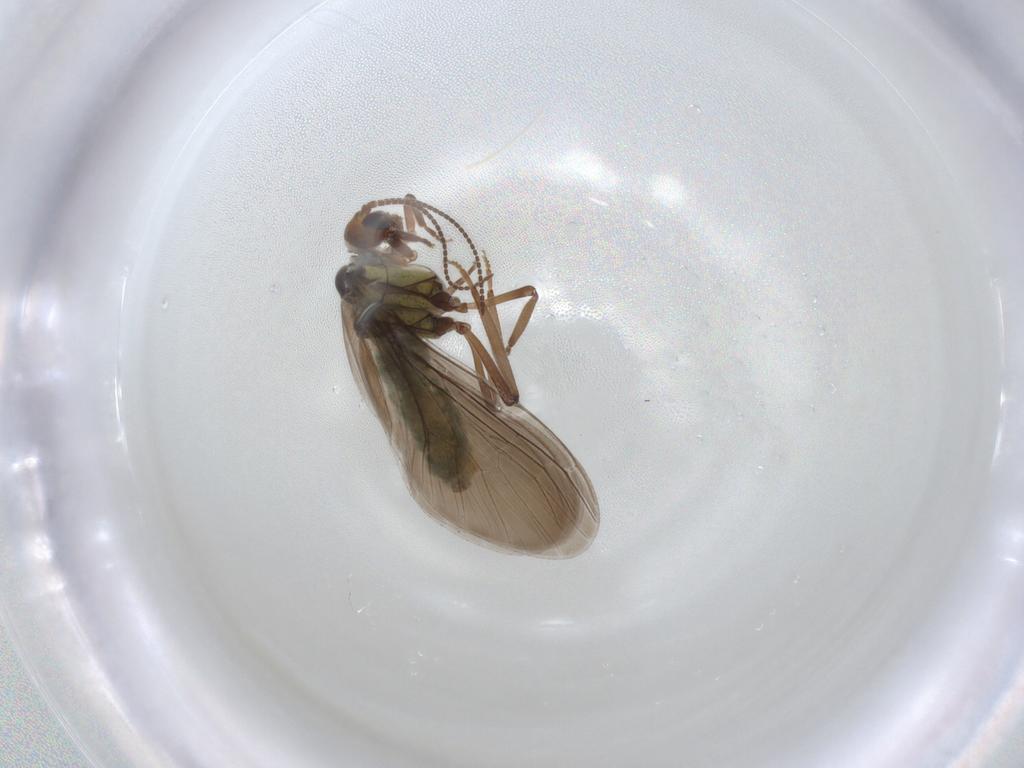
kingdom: Animalia
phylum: Arthropoda
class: Insecta
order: Neuroptera
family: Coniopterygidae
